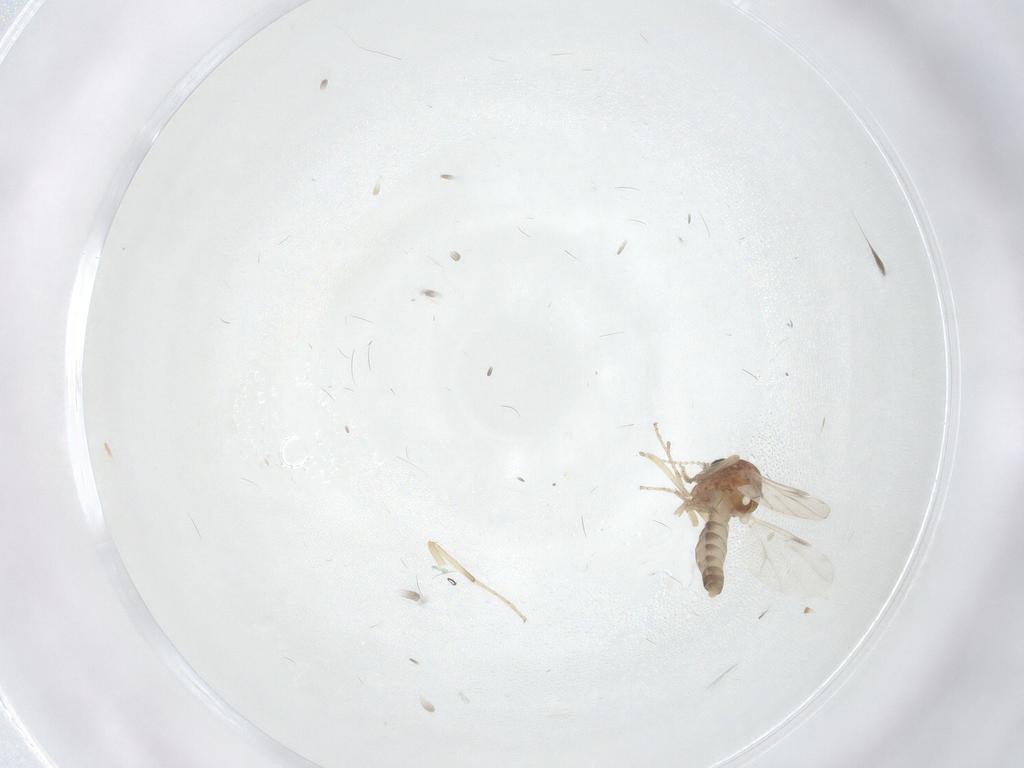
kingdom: Animalia
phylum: Arthropoda
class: Insecta
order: Diptera
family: Ceratopogonidae
